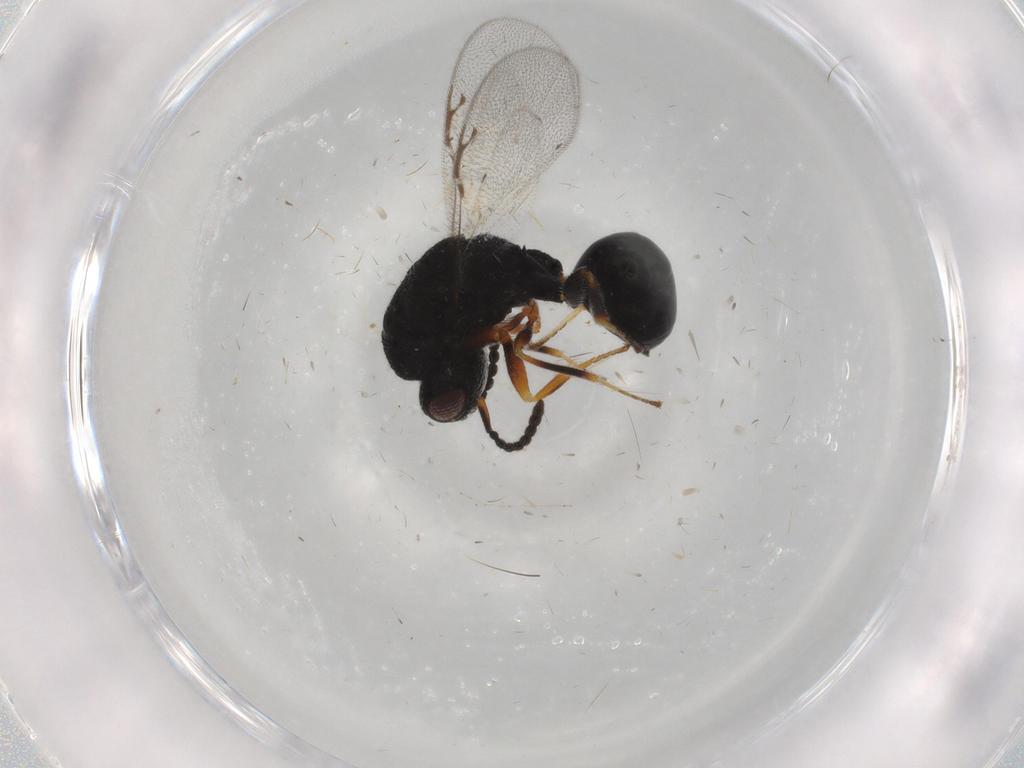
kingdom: Animalia
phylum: Arthropoda
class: Insecta
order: Hymenoptera
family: Eurytomidae
